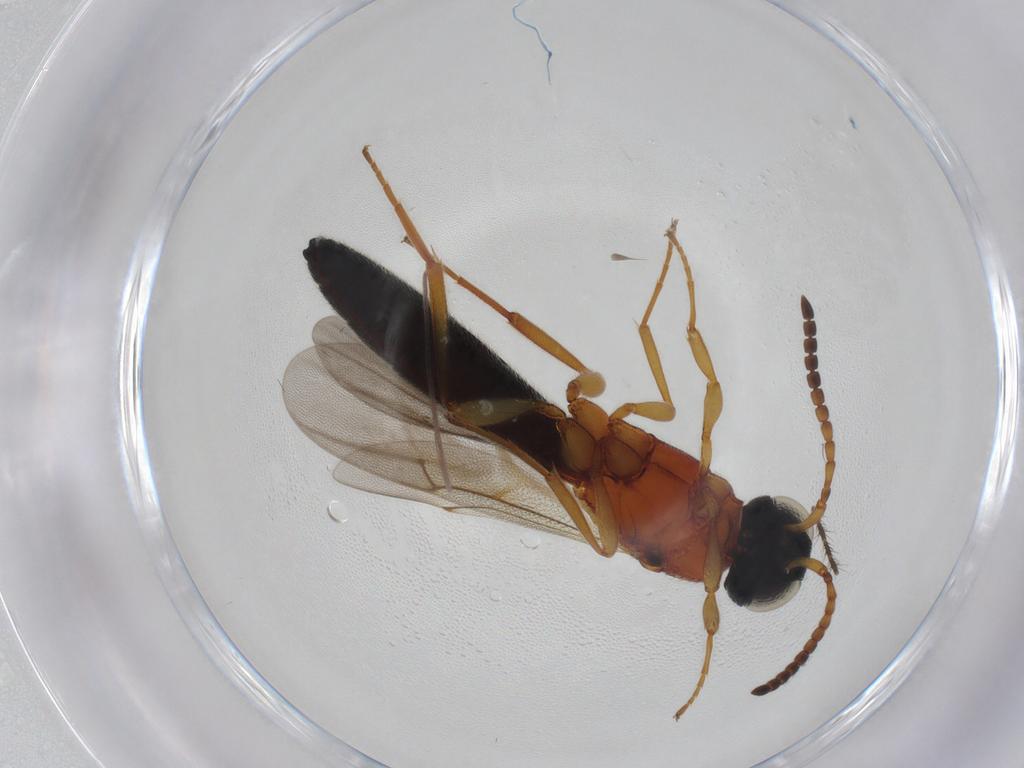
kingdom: Animalia
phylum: Arthropoda
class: Insecta
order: Hymenoptera
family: Scelionidae
